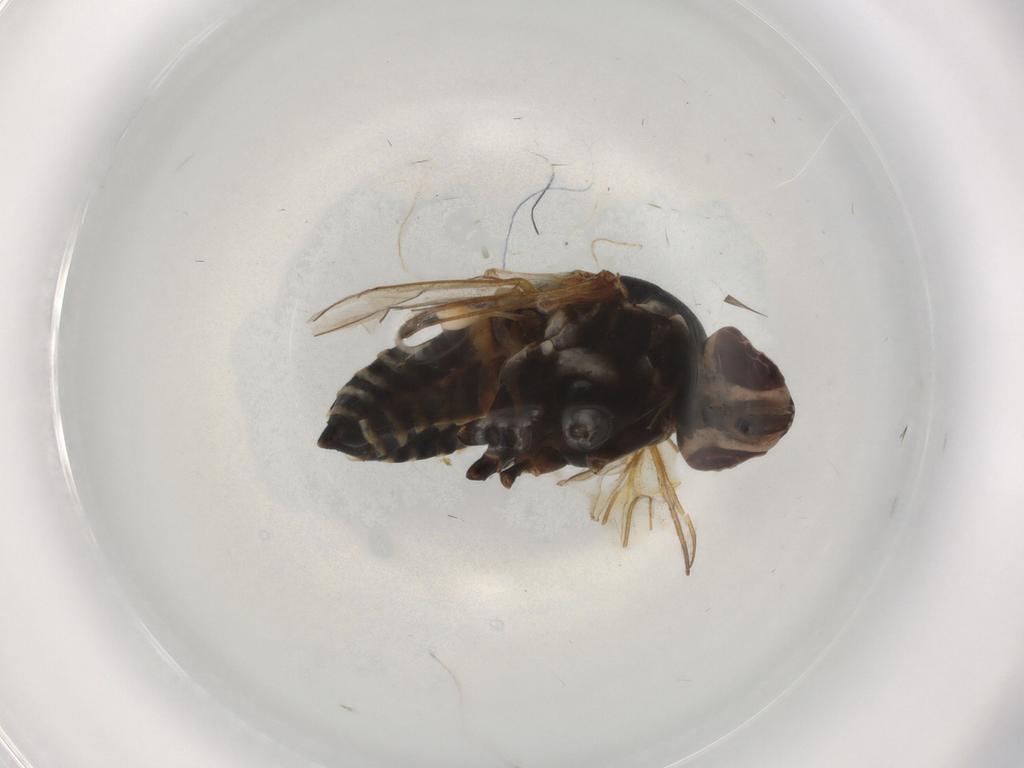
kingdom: Animalia
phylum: Arthropoda
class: Insecta
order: Diptera
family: Bombyliidae
